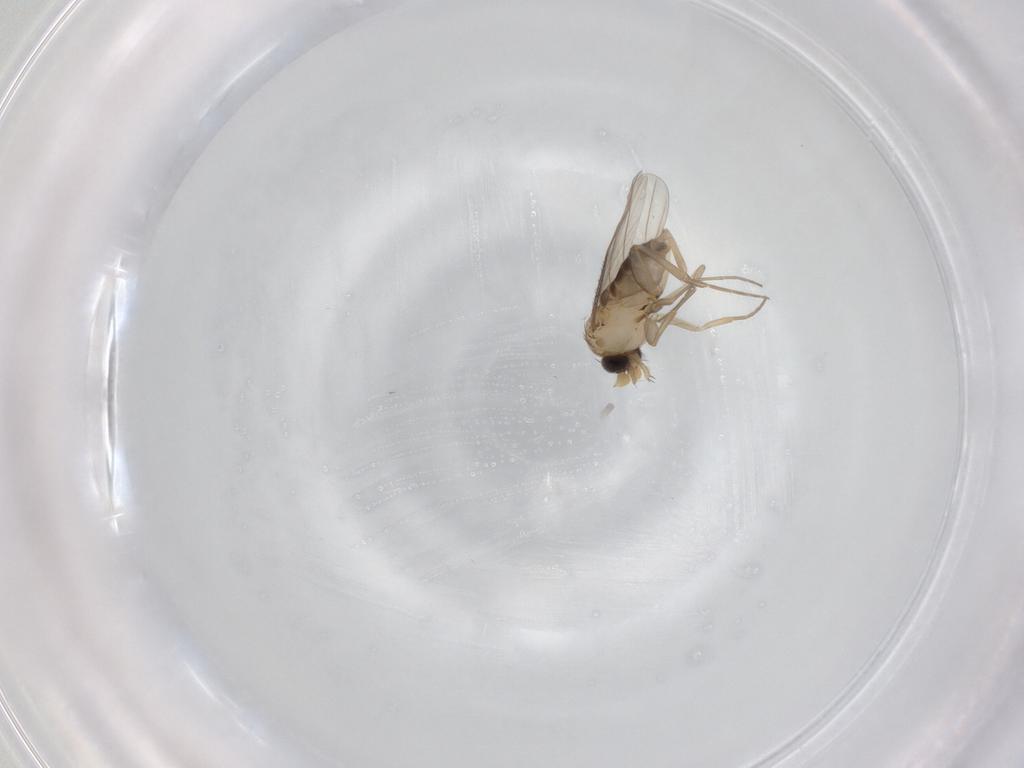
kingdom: Animalia
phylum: Arthropoda
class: Insecta
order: Diptera
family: Phoridae
